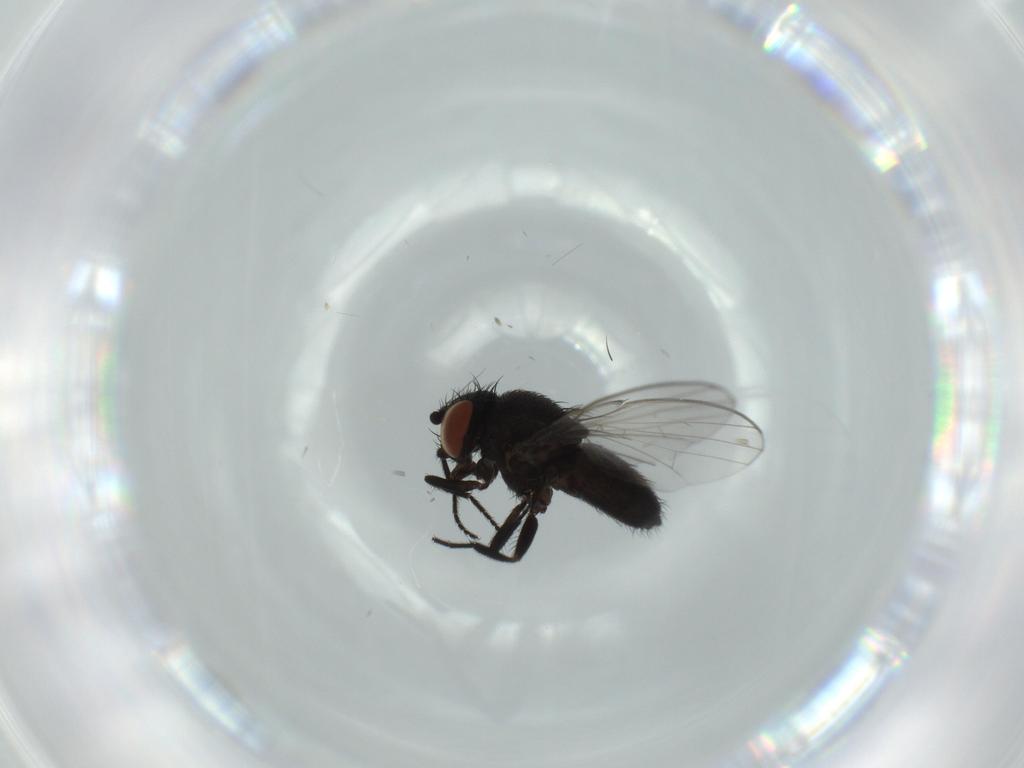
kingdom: Animalia
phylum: Arthropoda
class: Insecta
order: Diptera
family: Milichiidae
